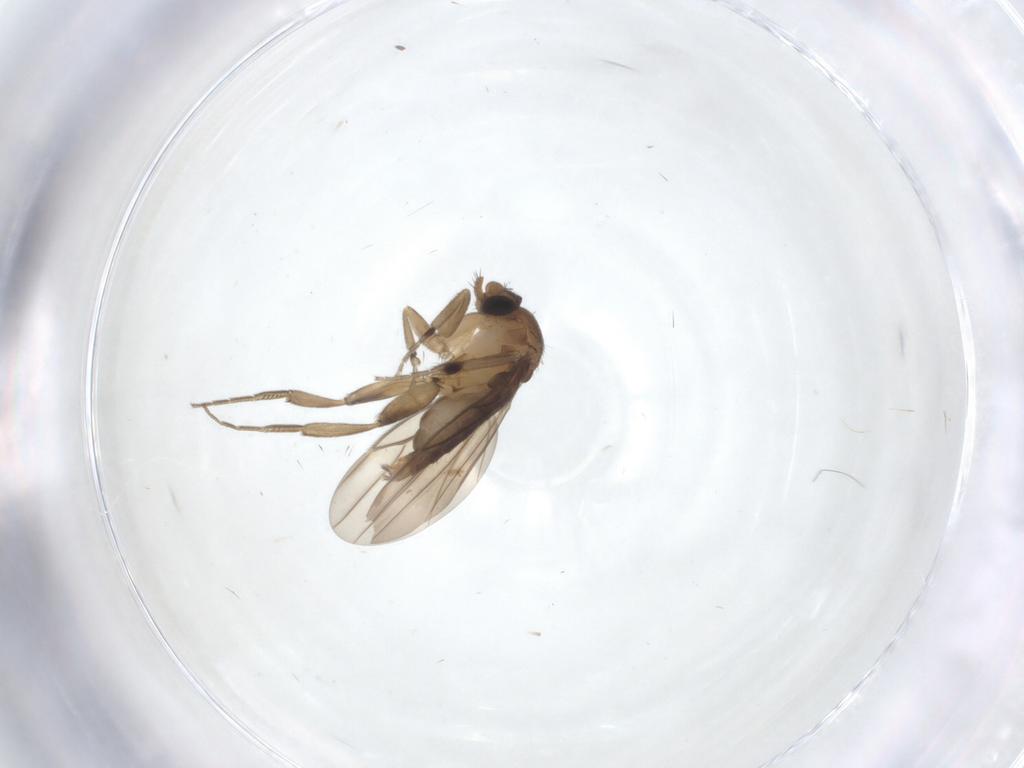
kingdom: Animalia
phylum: Arthropoda
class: Insecta
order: Diptera
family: Phoridae
